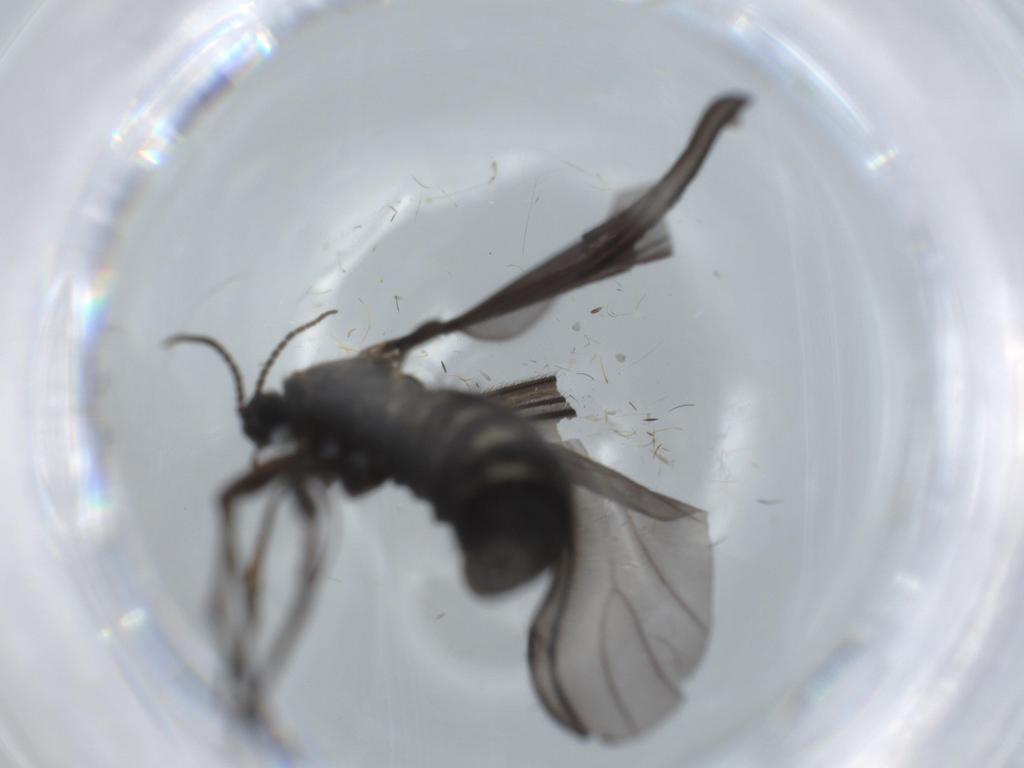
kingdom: Animalia
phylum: Arthropoda
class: Insecta
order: Diptera
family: Sciaridae
